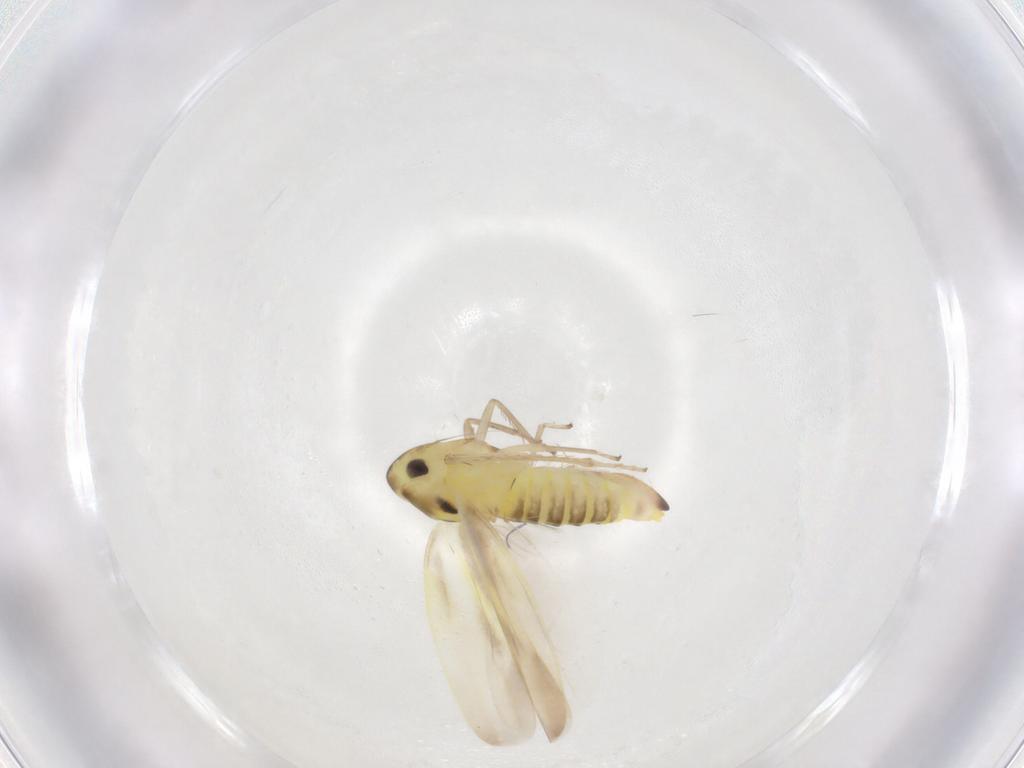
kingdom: Animalia
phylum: Arthropoda
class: Insecta
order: Hemiptera
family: Cicadellidae
